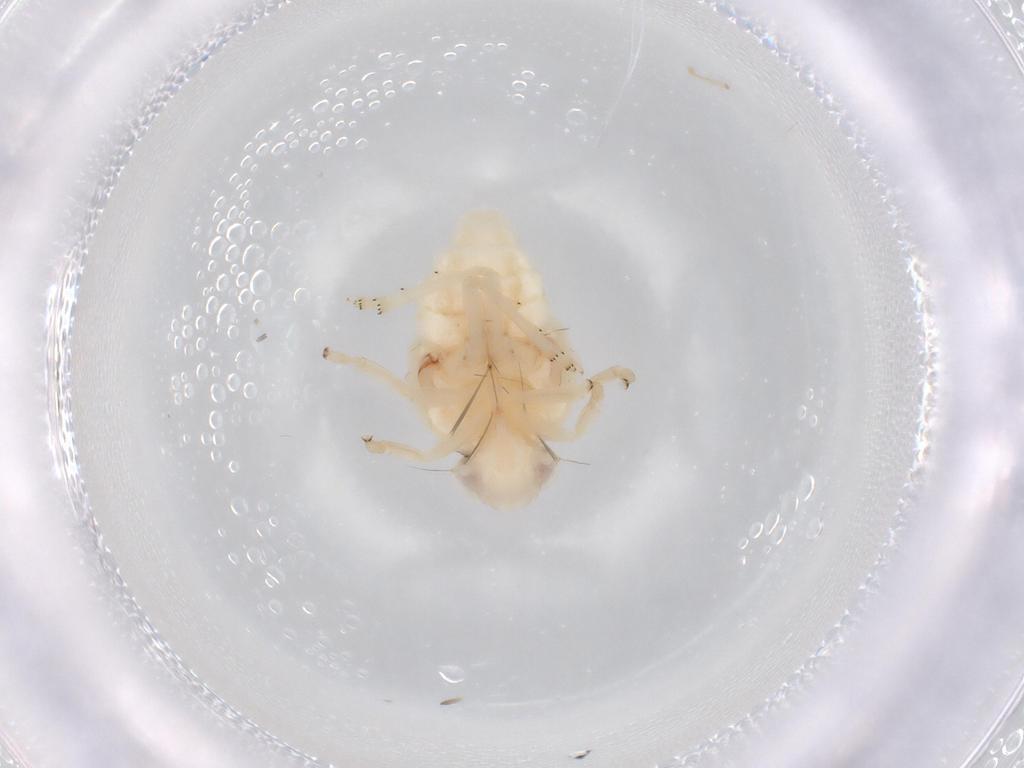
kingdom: Animalia
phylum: Arthropoda
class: Insecta
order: Hemiptera
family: Nogodinidae
